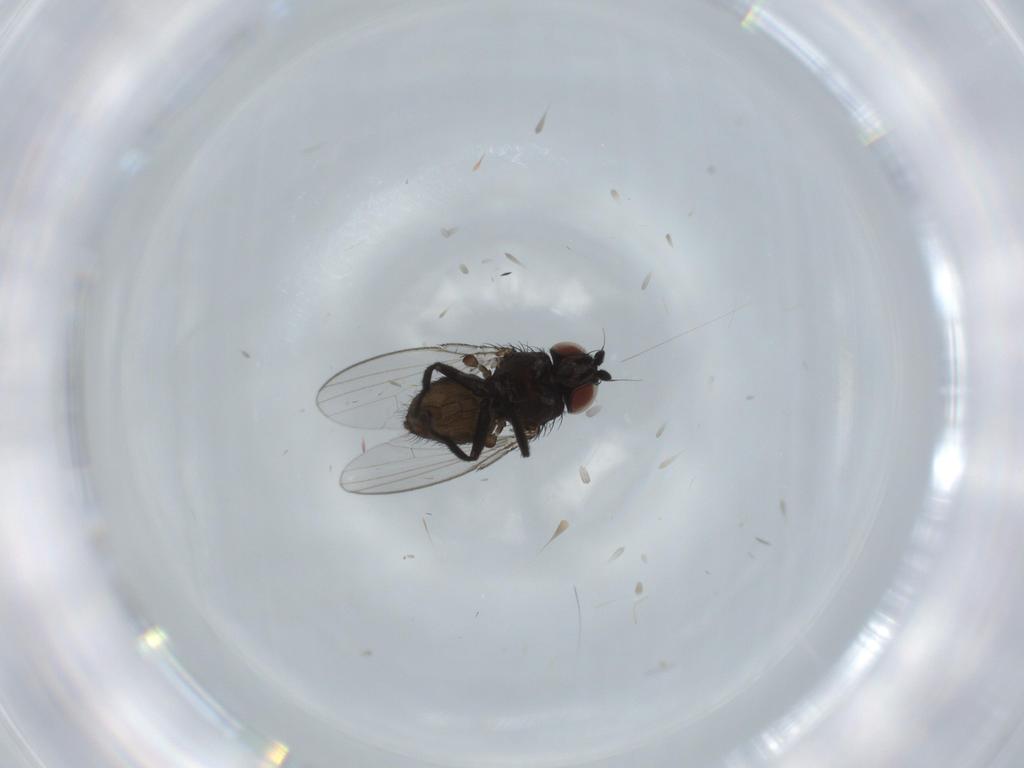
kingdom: Animalia
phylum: Arthropoda
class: Insecta
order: Diptera
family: Milichiidae
